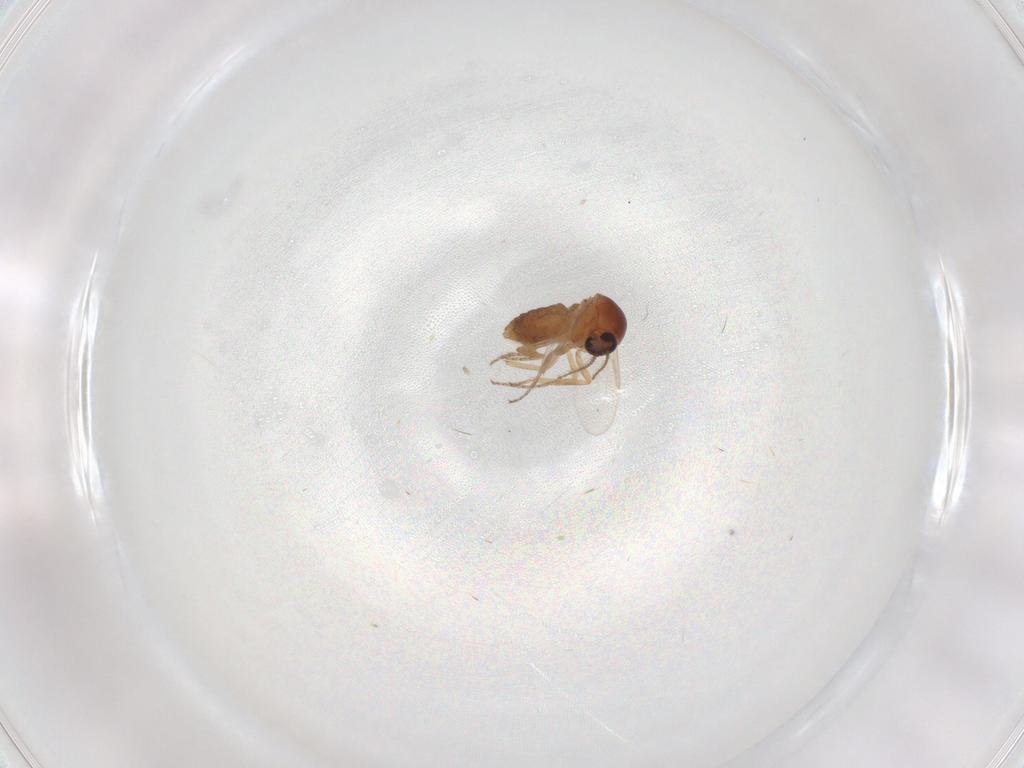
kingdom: Animalia
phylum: Arthropoda
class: Insecta
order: Diptera
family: Ceratopogonidae
